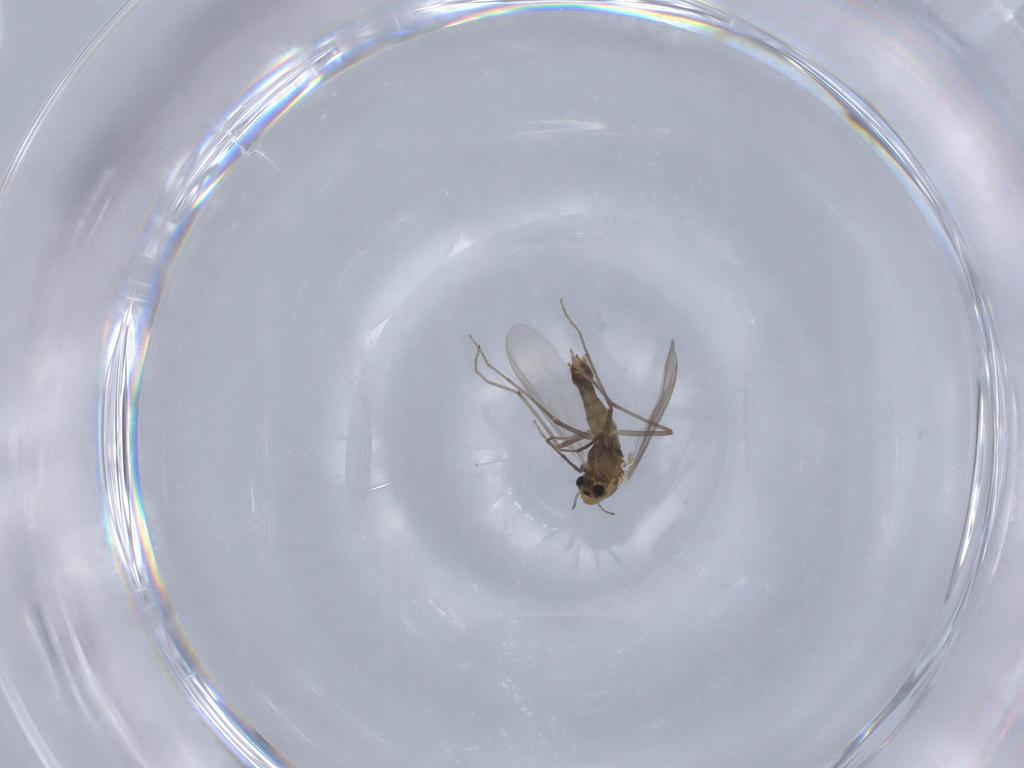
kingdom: Animalia
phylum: Arthropoda
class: Insecta
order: Diptera
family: Chironomidae
